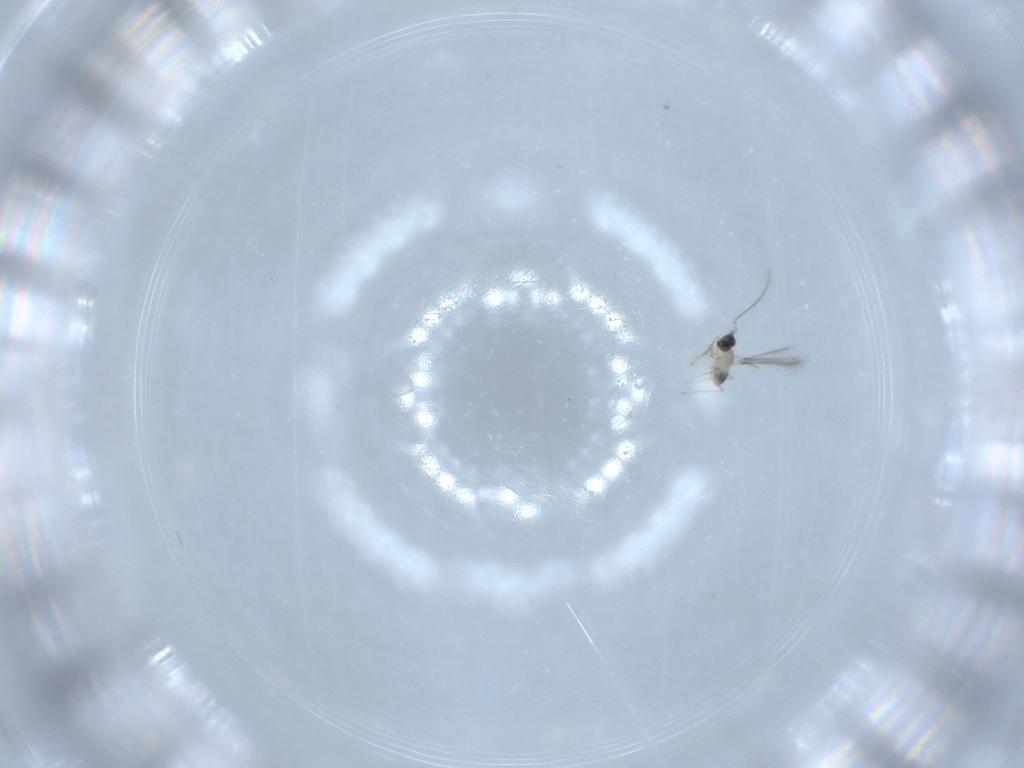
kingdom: Animalia
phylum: Arthropoda
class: Insecta
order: Hymenoptera
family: Mymaridae
